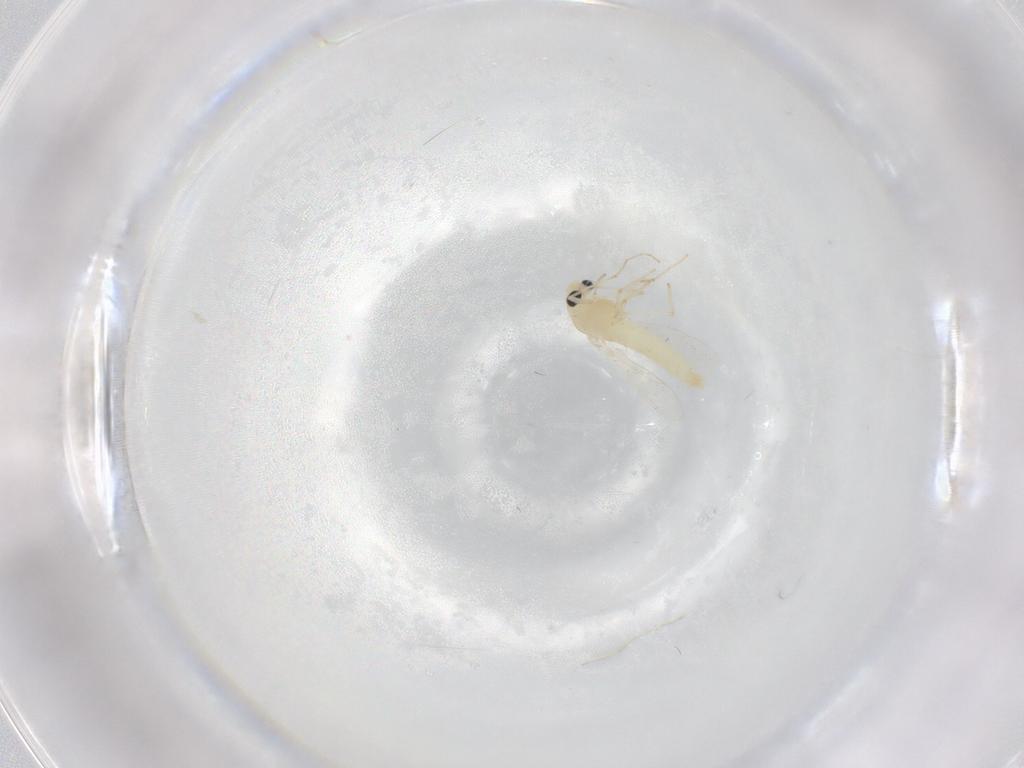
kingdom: Animalia
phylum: Arthropoda
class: Insecta
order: Diptera
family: Chironomidae
